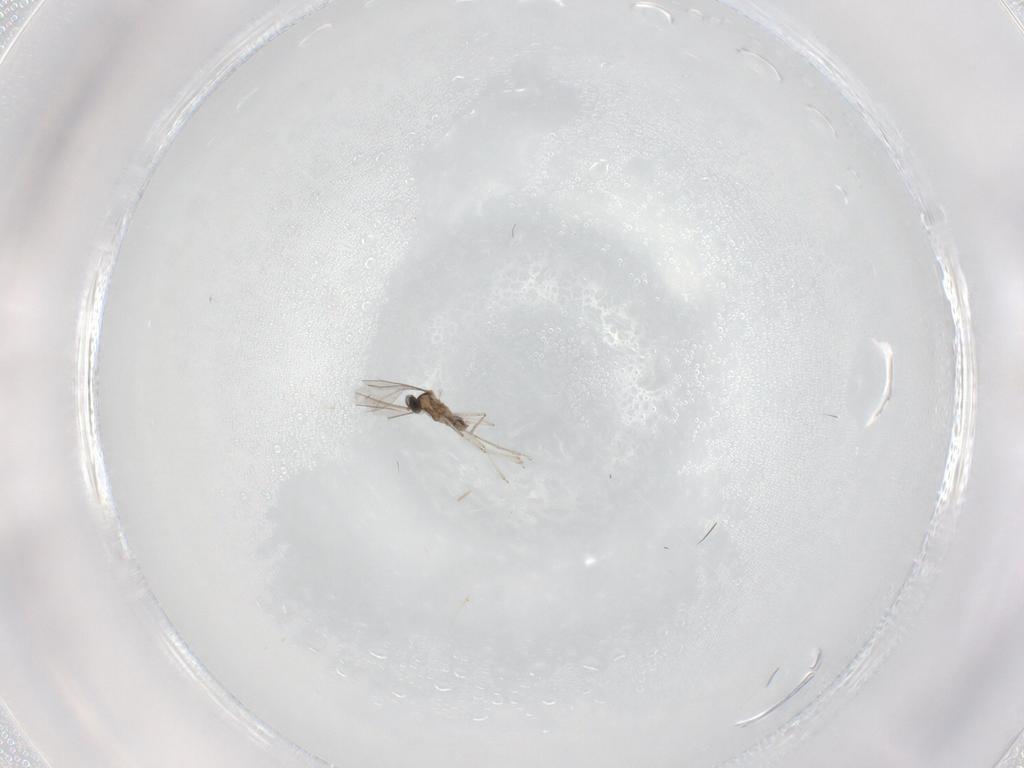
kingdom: Animalia
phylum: Arthropoda
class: Insecta
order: Diptera
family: Cecidomyiidae
